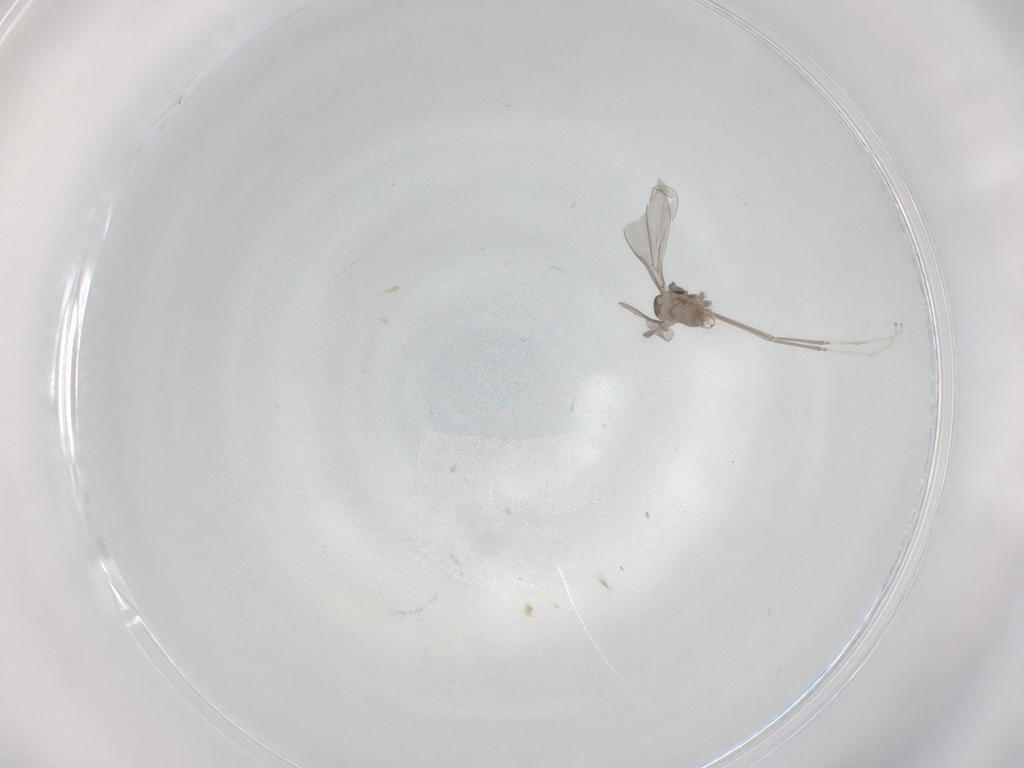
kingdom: Animalia
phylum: Arthropoda
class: Insecta
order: Diptera
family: Cecidomyiidae
